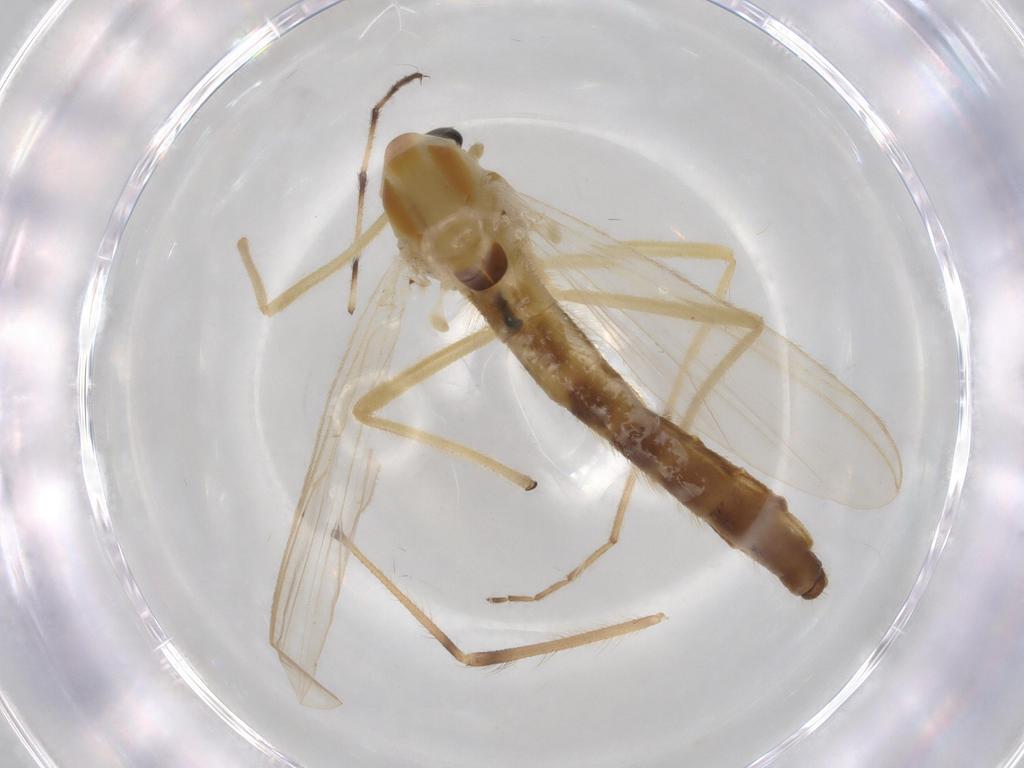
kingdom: Animalia
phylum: Arthropoda
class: Insecta
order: Diptera
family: Chironomidae
